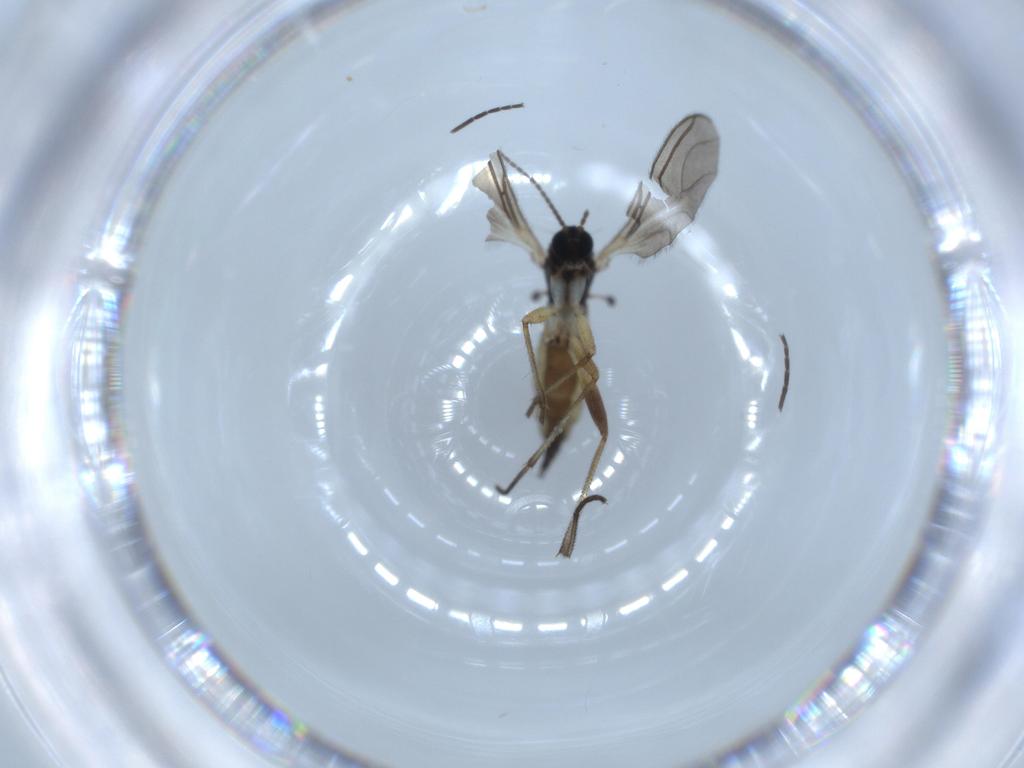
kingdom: Animalia
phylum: Arthropoda
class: Insecta
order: Diptera
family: Sciaridae
